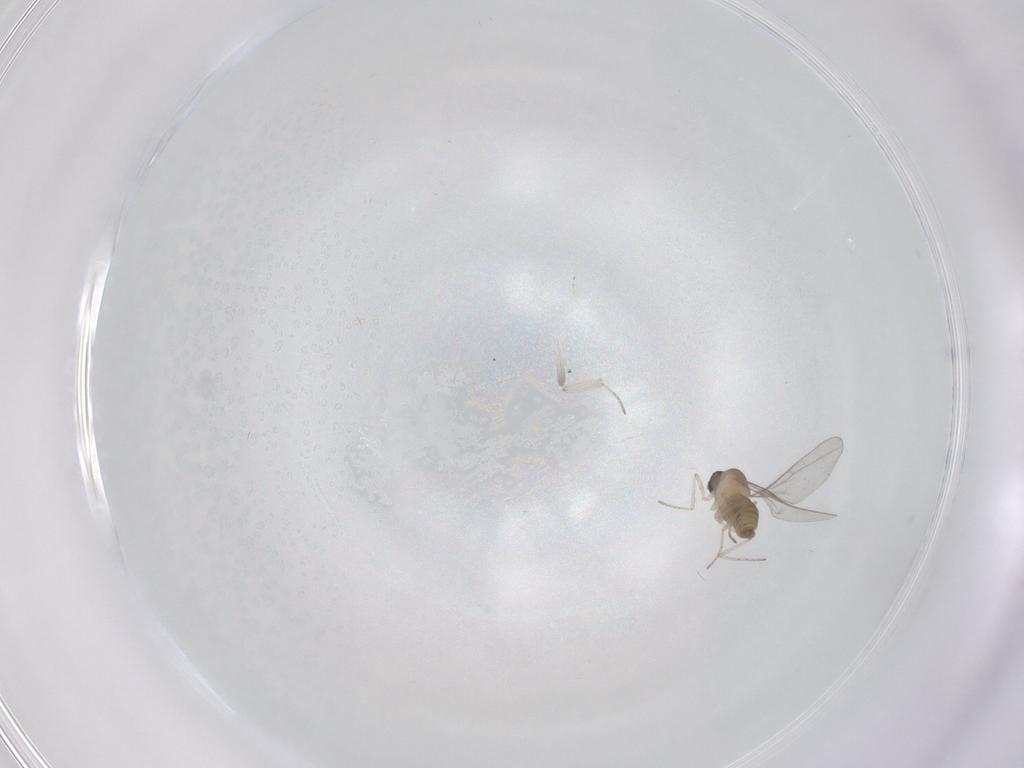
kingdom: Animalia
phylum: Arthropoda
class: Insecta
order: Diptera
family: Cecidomyiidae
